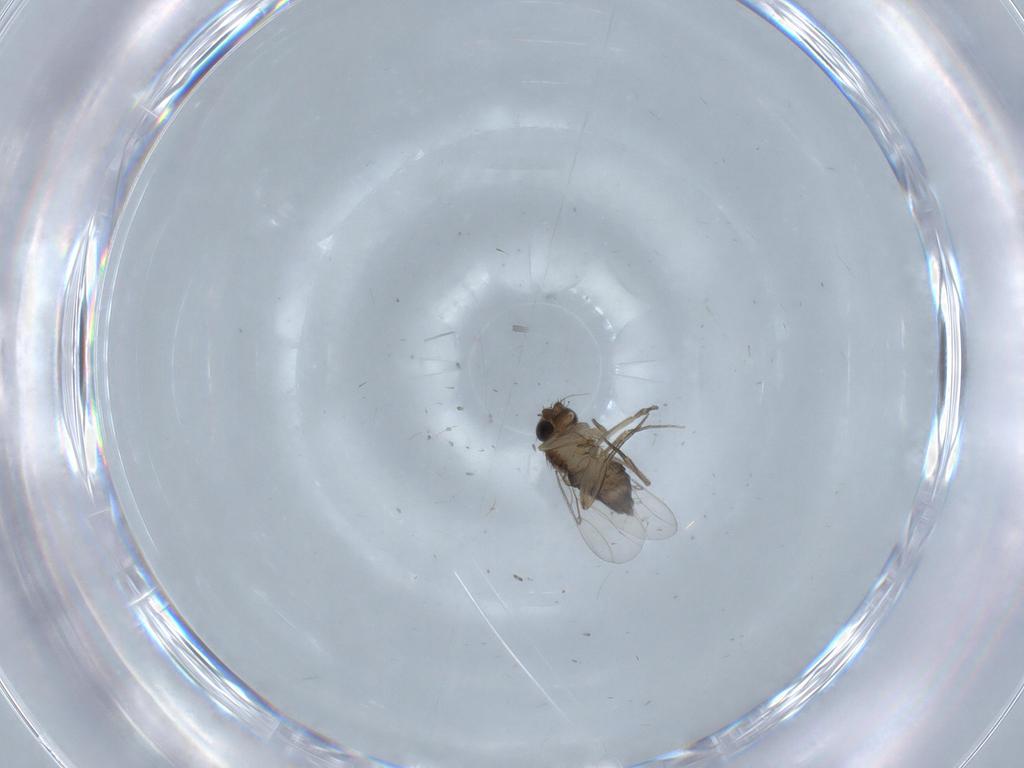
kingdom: Animalia
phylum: Arthropoda
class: Insecta
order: Diptera
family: Phoridae
